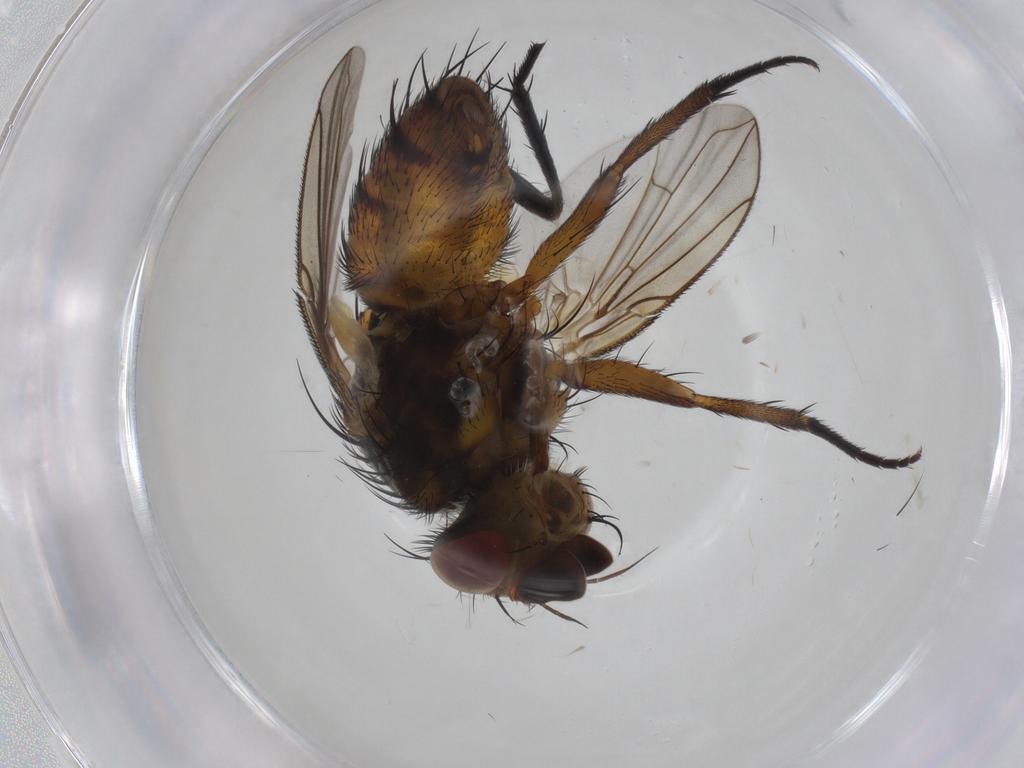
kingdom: Animalia
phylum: Arthropoda
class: Insecta
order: Diptera
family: Tachinidae
